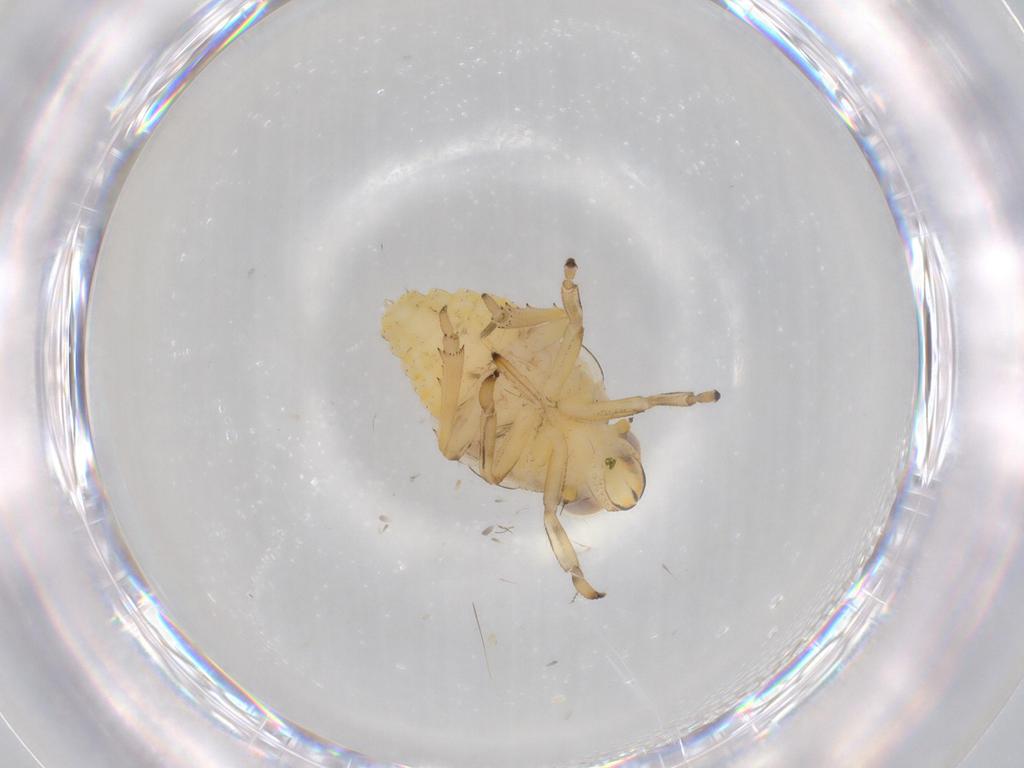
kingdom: Animalia
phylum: Arthropoda
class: Insecta
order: Hemiptera
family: Issidae
